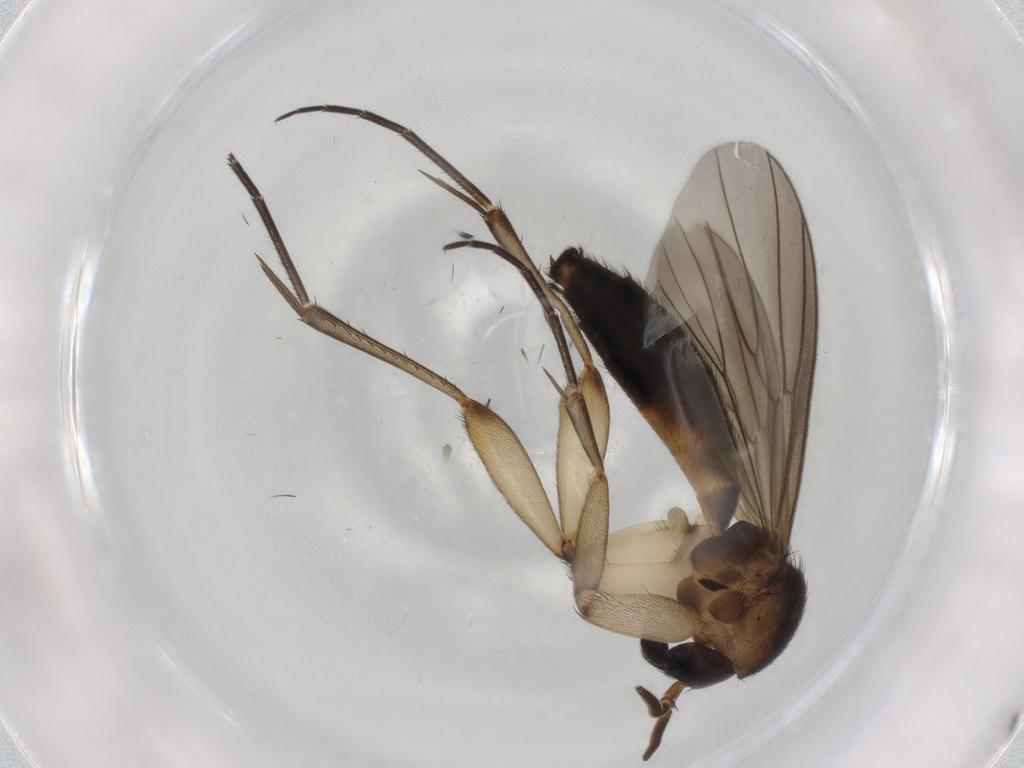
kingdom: Animalia
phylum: Arthropoda
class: Insecta
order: Diptera
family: Mycetophilidae
